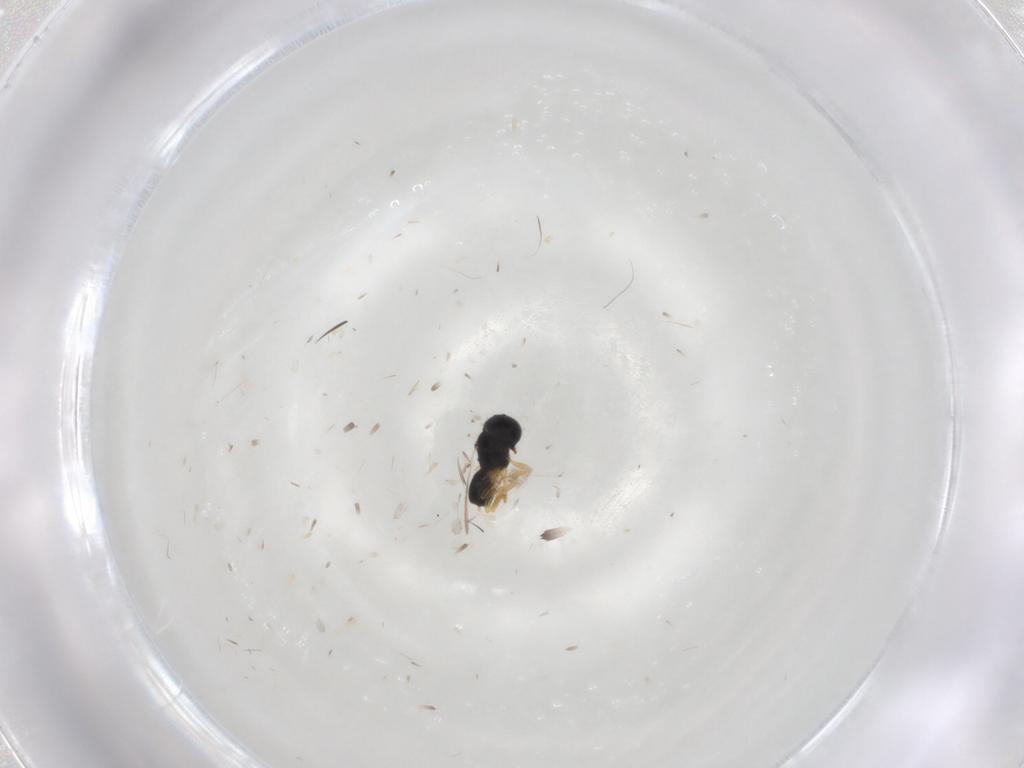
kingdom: Animalia
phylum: Arthropoda
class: Insecta
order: Hymenoptera
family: Scelionidae
